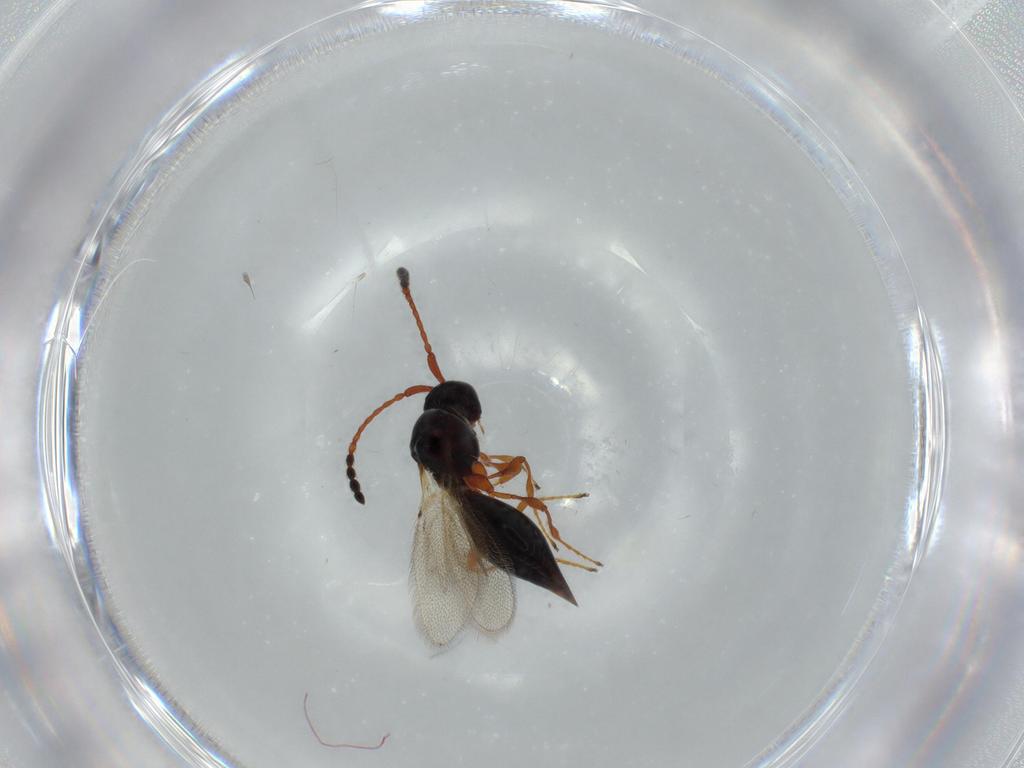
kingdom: Animalia
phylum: Arthropoda
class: Insecta
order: Hymenoptera
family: Diapriidae
